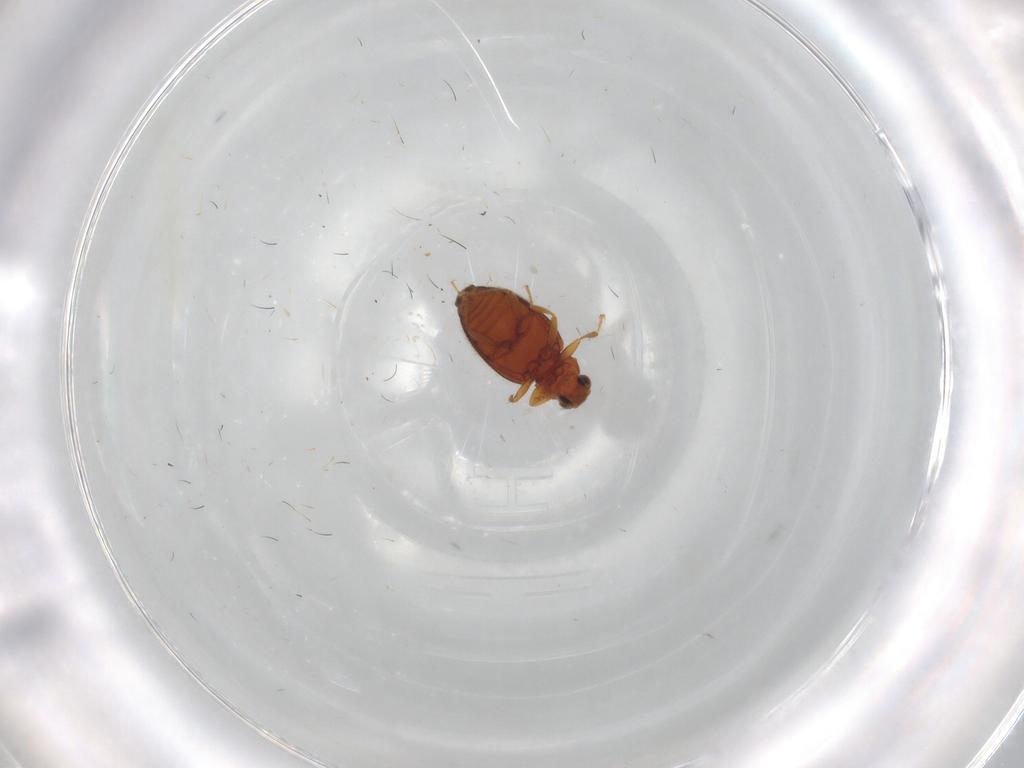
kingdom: Animalia
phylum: Arthropoda
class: Insecta
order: Coleoptera
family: Latridiidae
